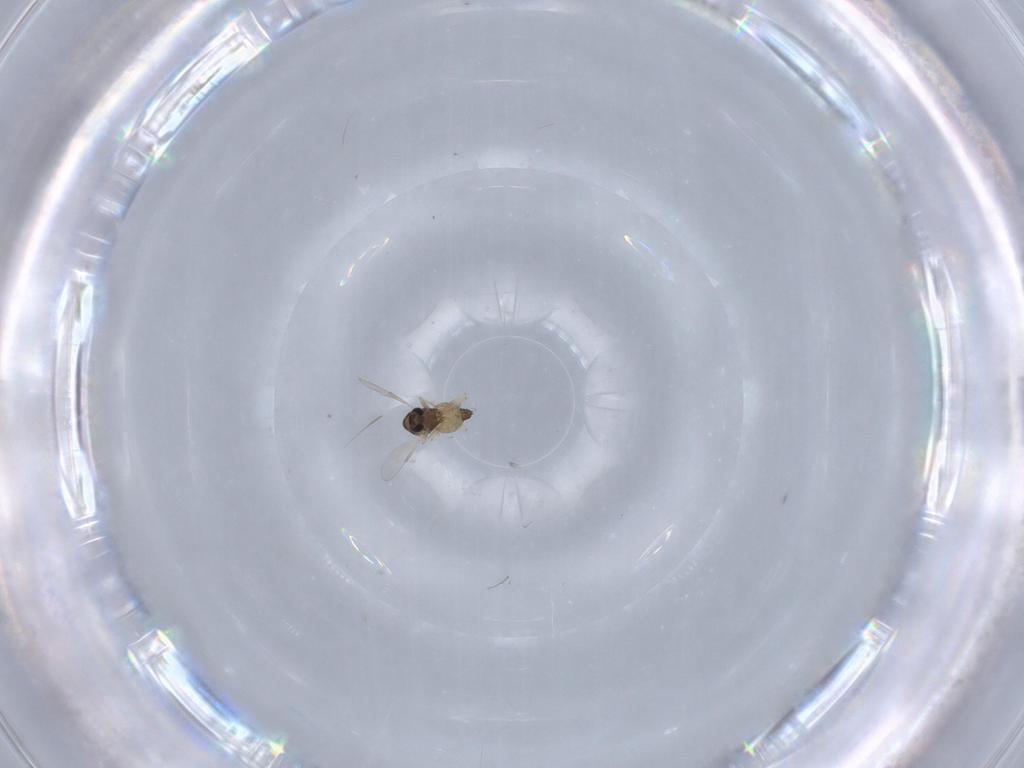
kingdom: Animalia
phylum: Arthropoda
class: Insecta
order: Diptera
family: Chironomidae
